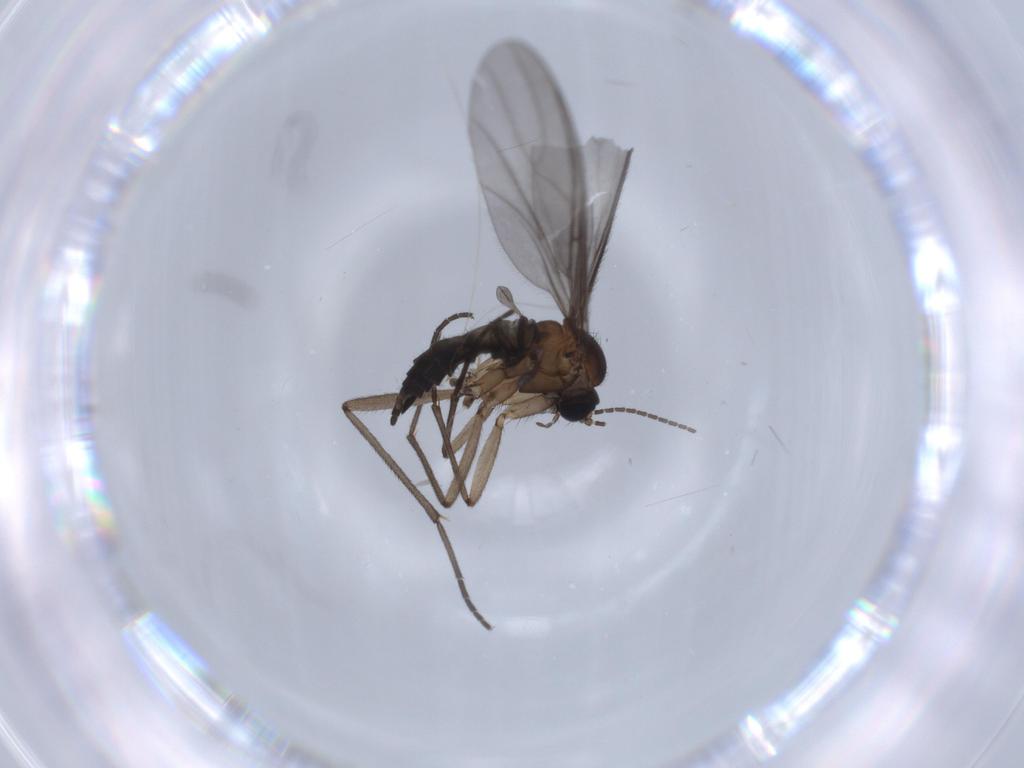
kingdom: Animalia
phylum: Arthropoda
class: Insecta
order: Diptera
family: Sciaridae
